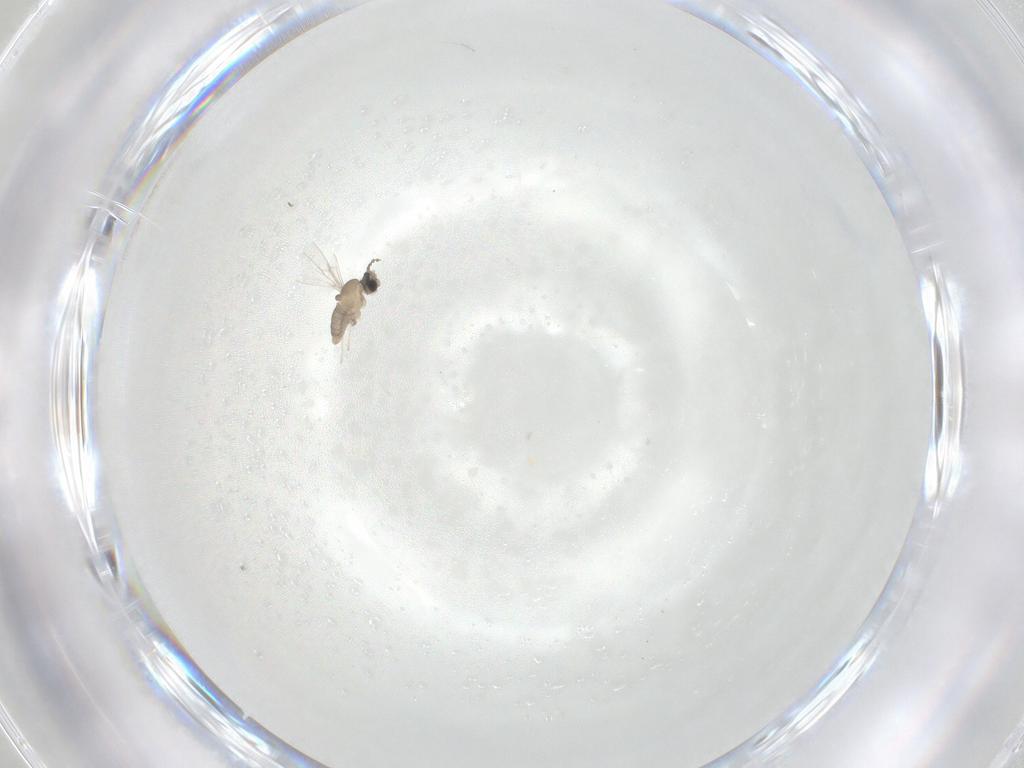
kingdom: Animalia
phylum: Arthropoda
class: Insecta
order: Diptera
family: Cecidomyiidae
